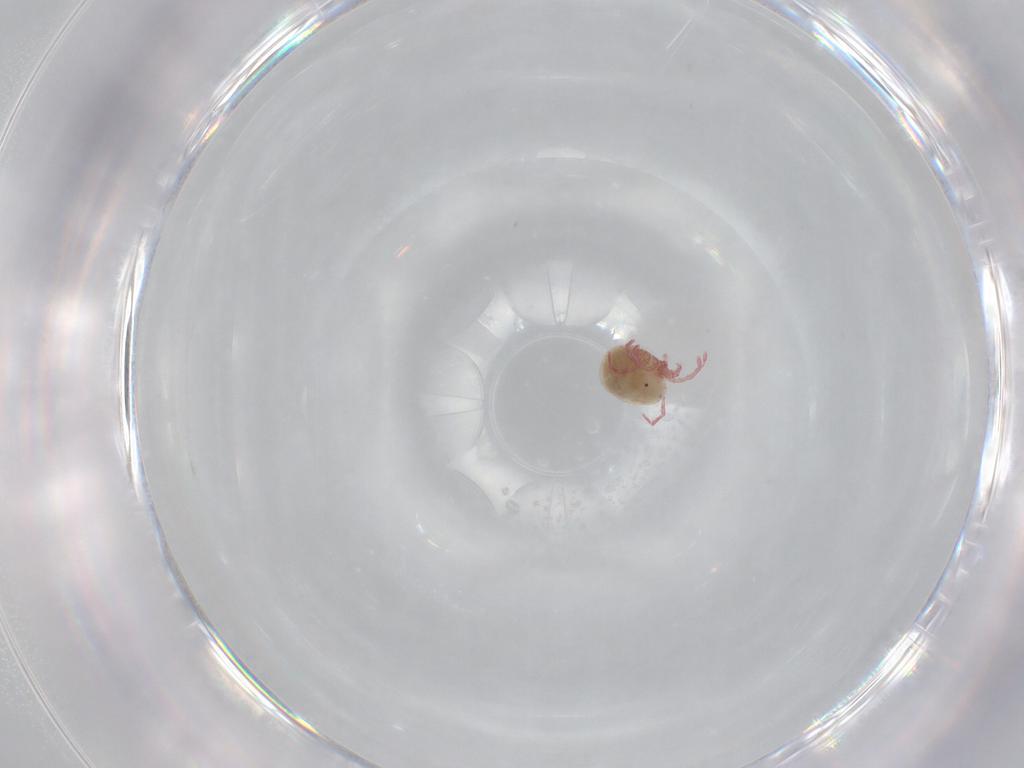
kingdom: Animalia
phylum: Arthropoda
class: Arachnida
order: Trombidiformes
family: Pionidae
